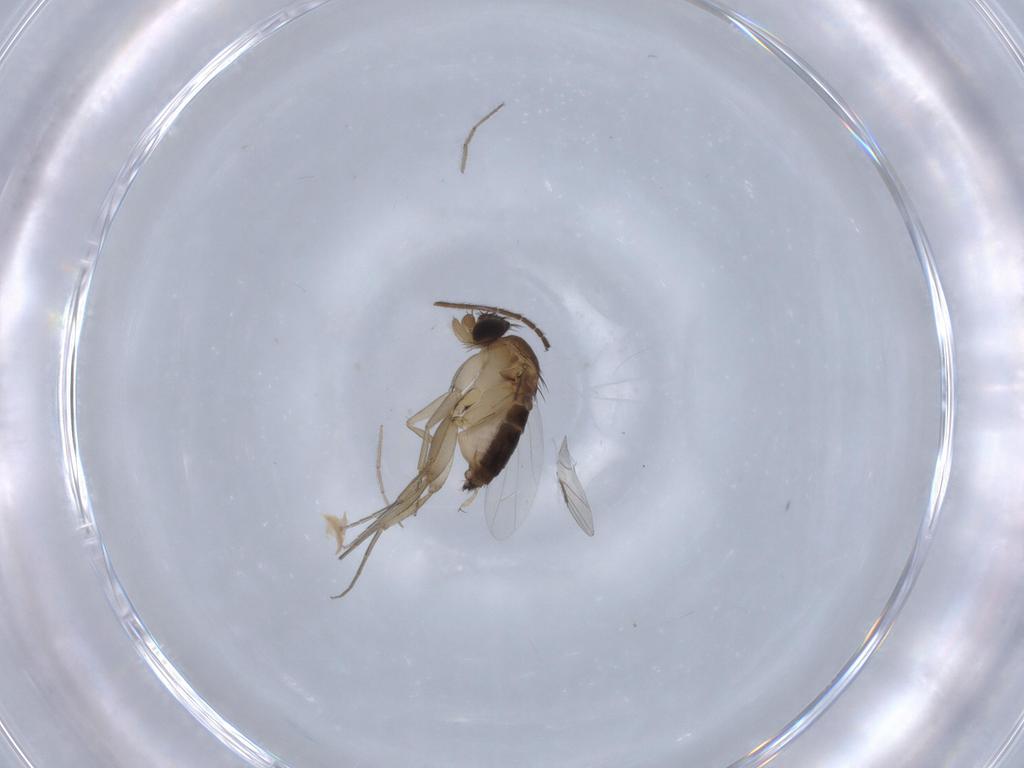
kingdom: Animalia
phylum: Arthropoda
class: Insecta
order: Diptera
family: Chironomidae
